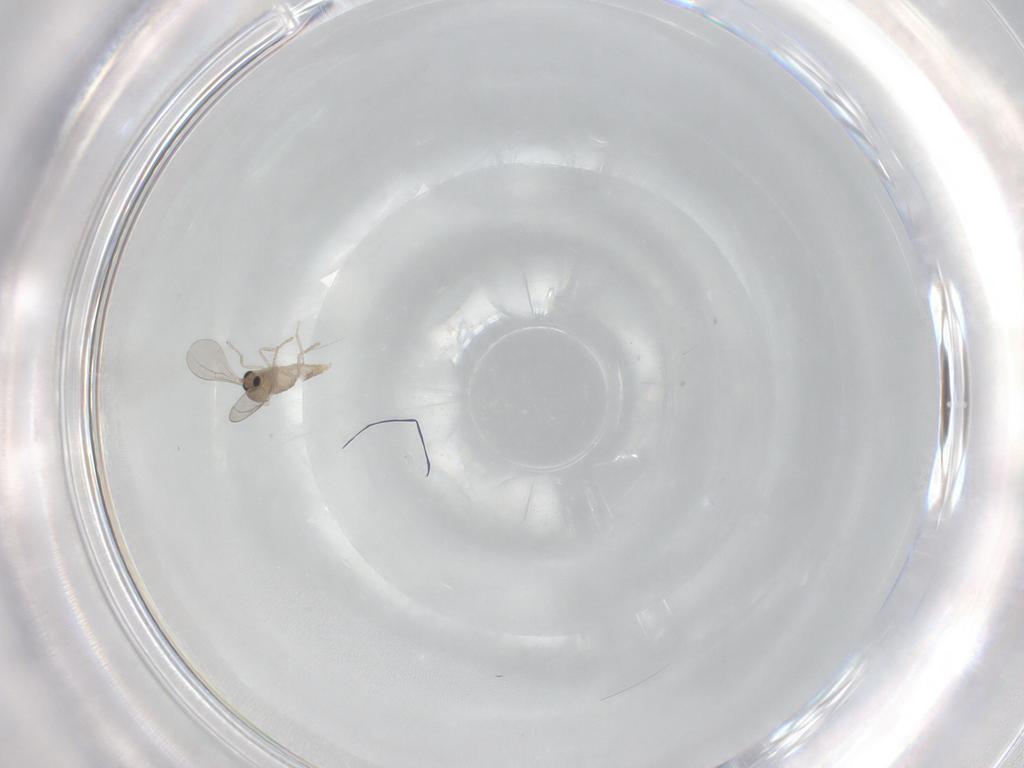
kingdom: Animalia
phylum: Arthropoda
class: Insecta
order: Diptera
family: Cecidomyiidae
